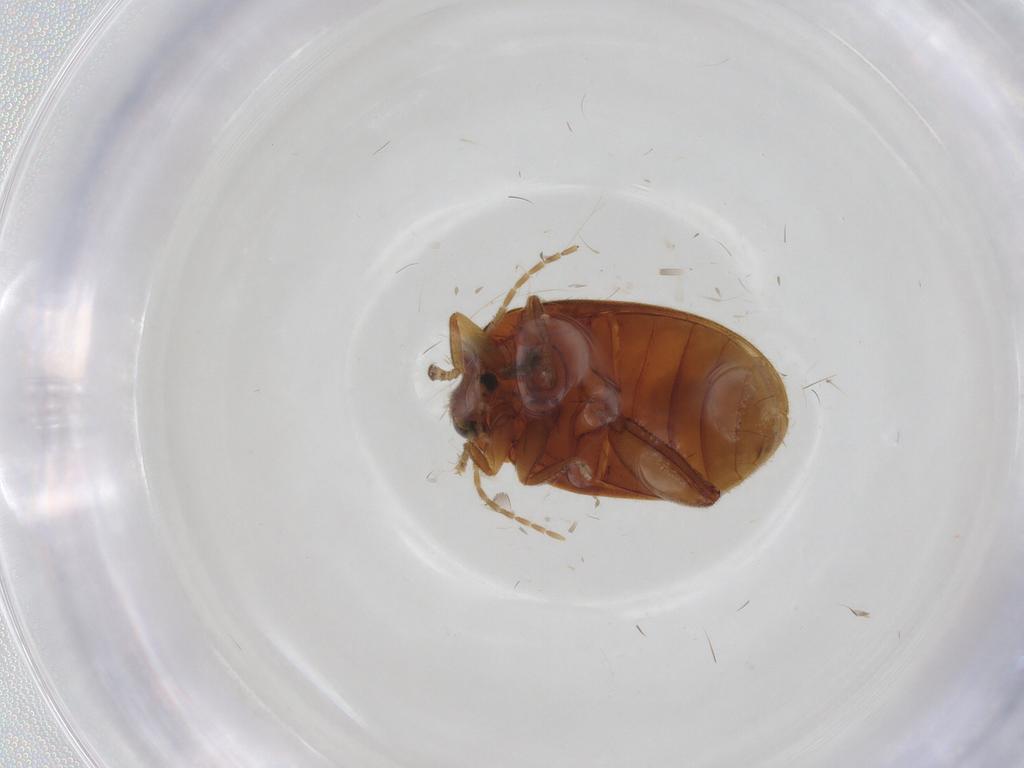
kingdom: Animalia
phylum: Arthropoda
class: Insecta
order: Coleoptera
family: Scirtidae
